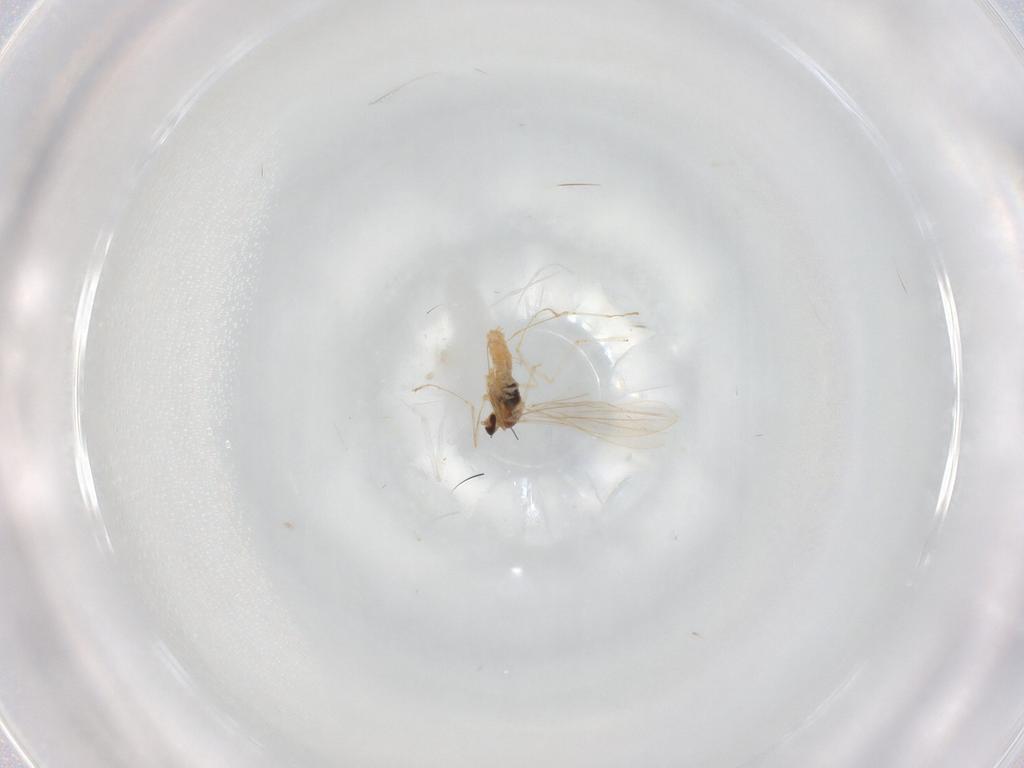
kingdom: Animalia
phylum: Arthropoda
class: Insecta
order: Diptera
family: Cecidomyiidae
